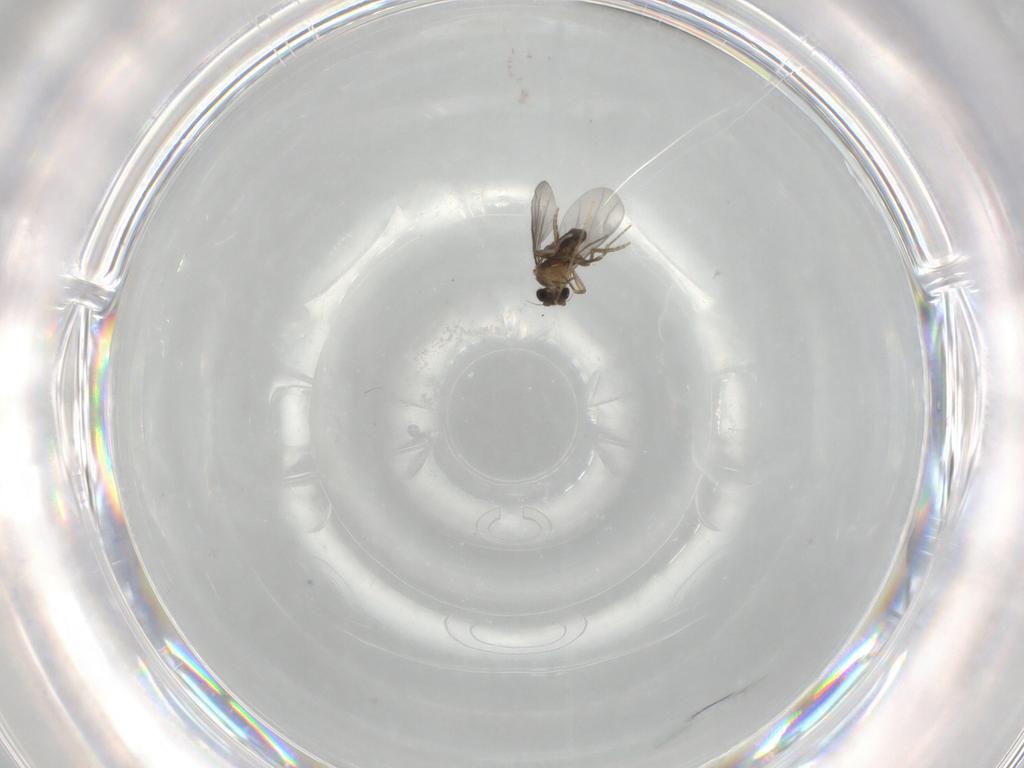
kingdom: Animalia
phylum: Arthropoda
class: Insecta
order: Diptera
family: Limoniidae
